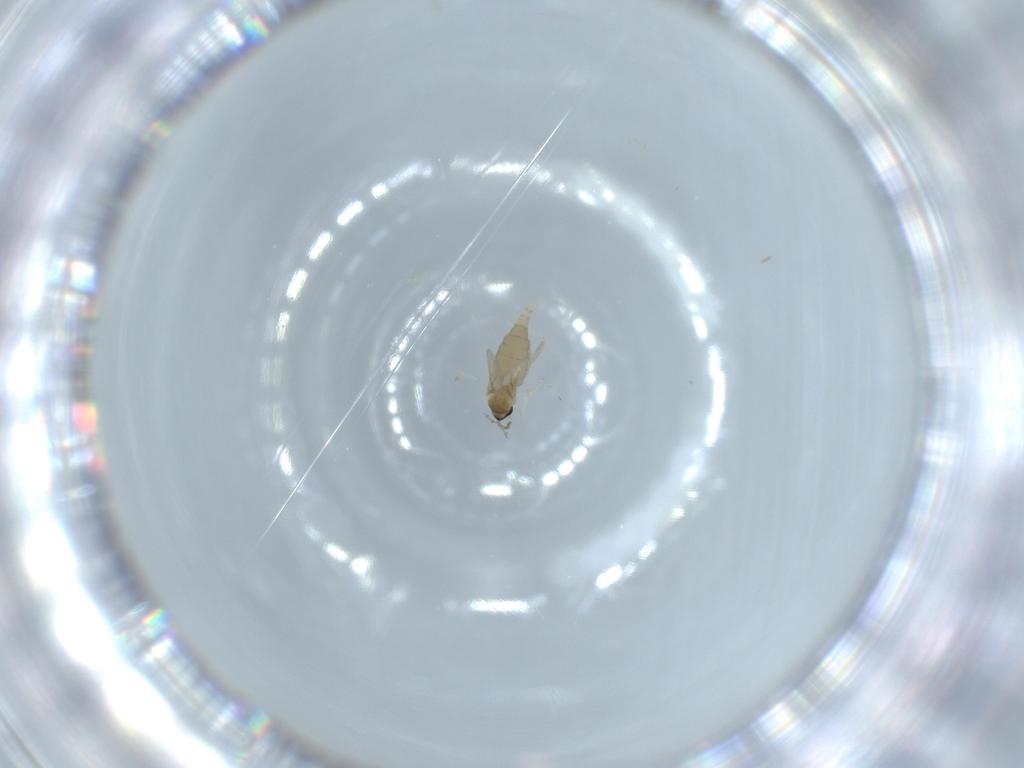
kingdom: Animalia
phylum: Arthropoda
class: Insecta
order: Diptera
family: Cecidomyiidae
